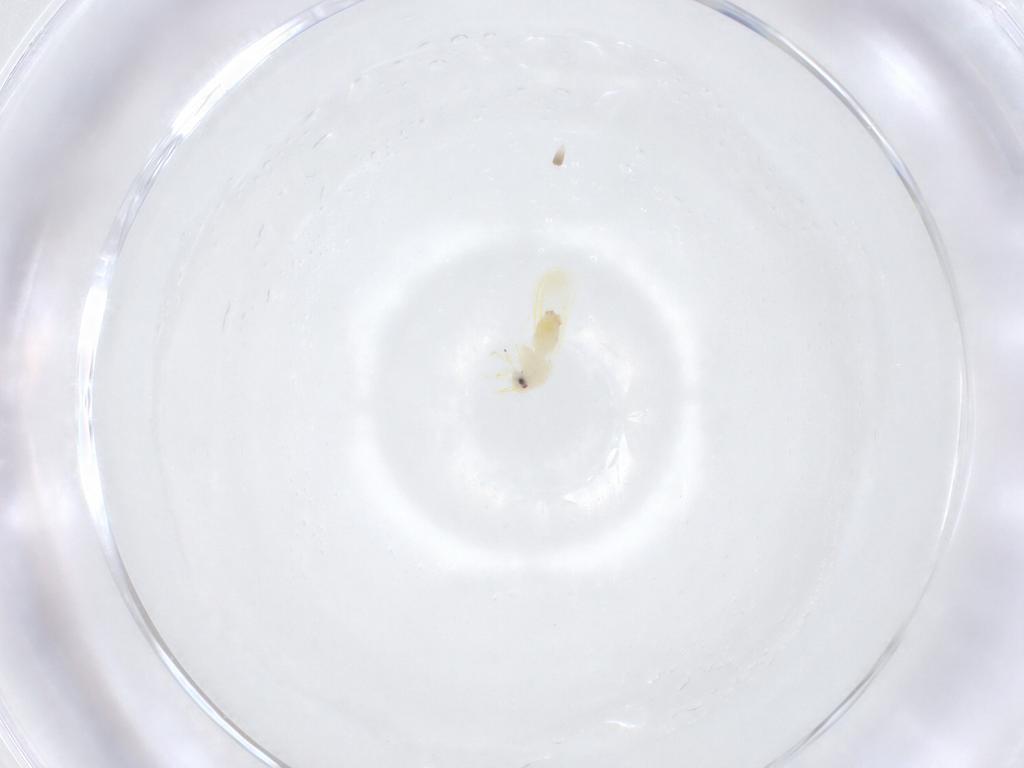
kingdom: Animalia
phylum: Arthropoda
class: Insecta
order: Hemiptera
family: Aleyrodidae
